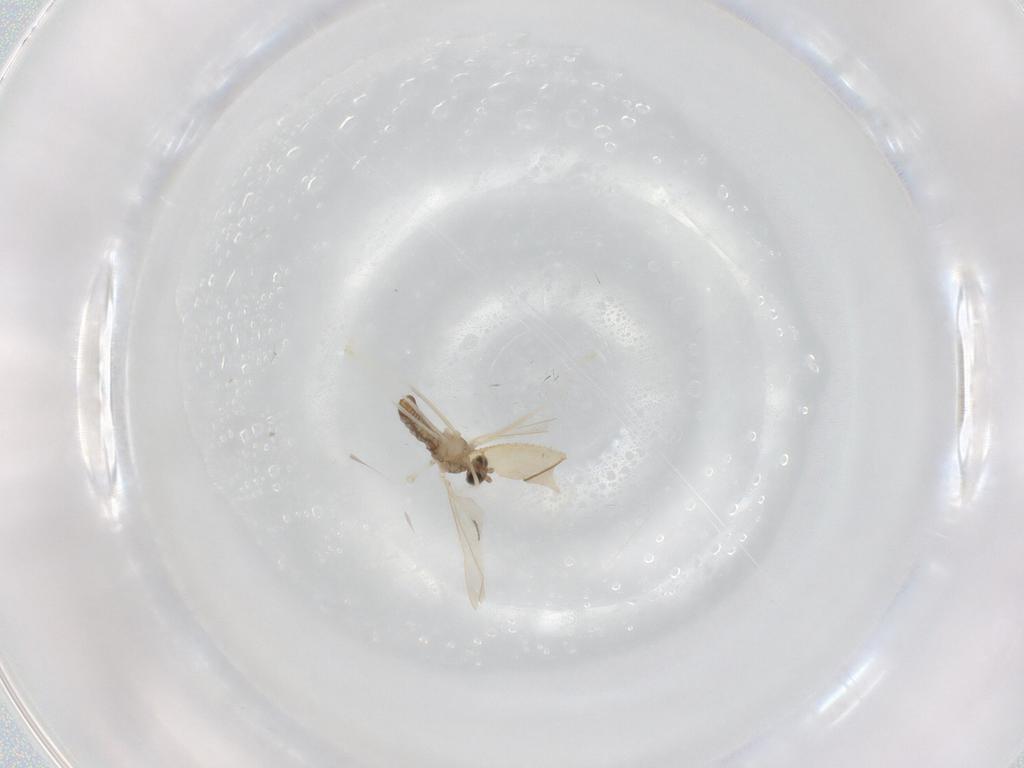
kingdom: Animalia
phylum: Arthropoda
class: Insecta
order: Diptera
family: Cecidomyiidae
